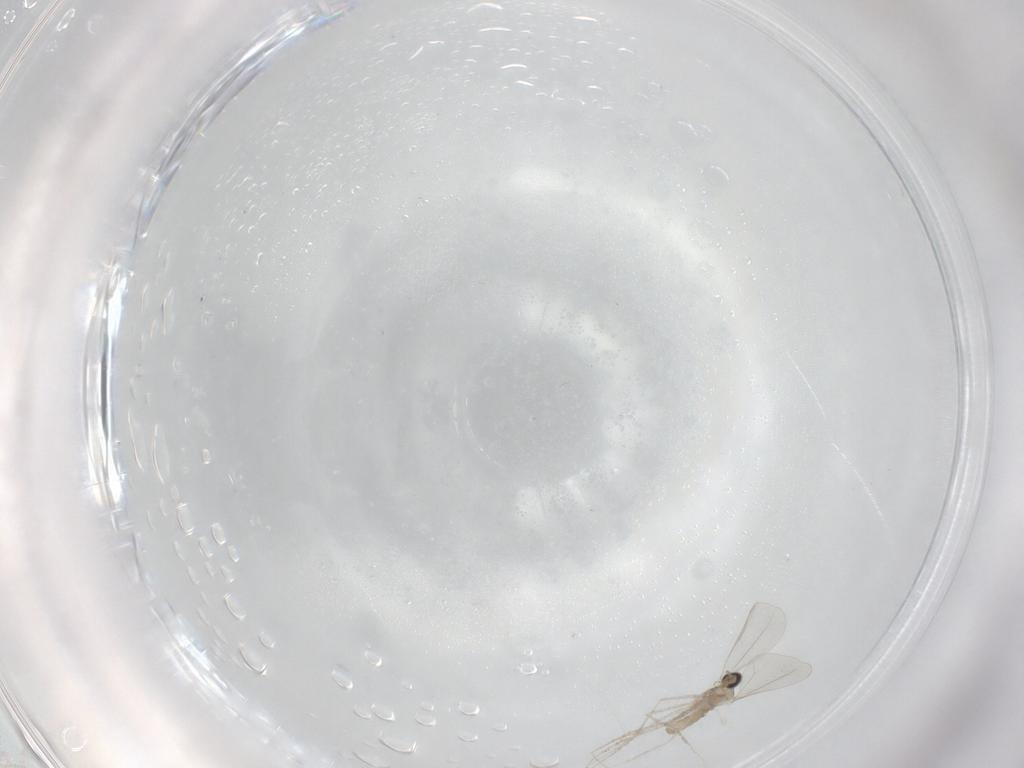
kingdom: Animalia
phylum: Arthropoda
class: Insecta
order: Diptera
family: Cecidomyiidae
